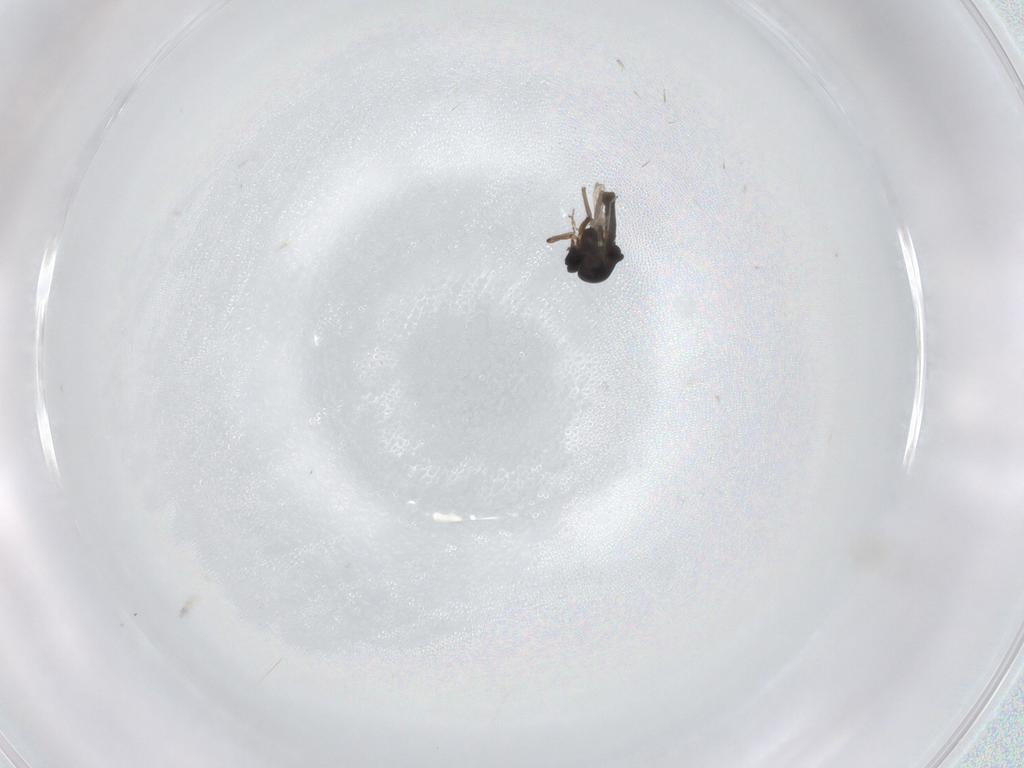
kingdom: Animalia
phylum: Arthropoda
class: Insecta
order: Diptera
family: Ceratopogonidae
